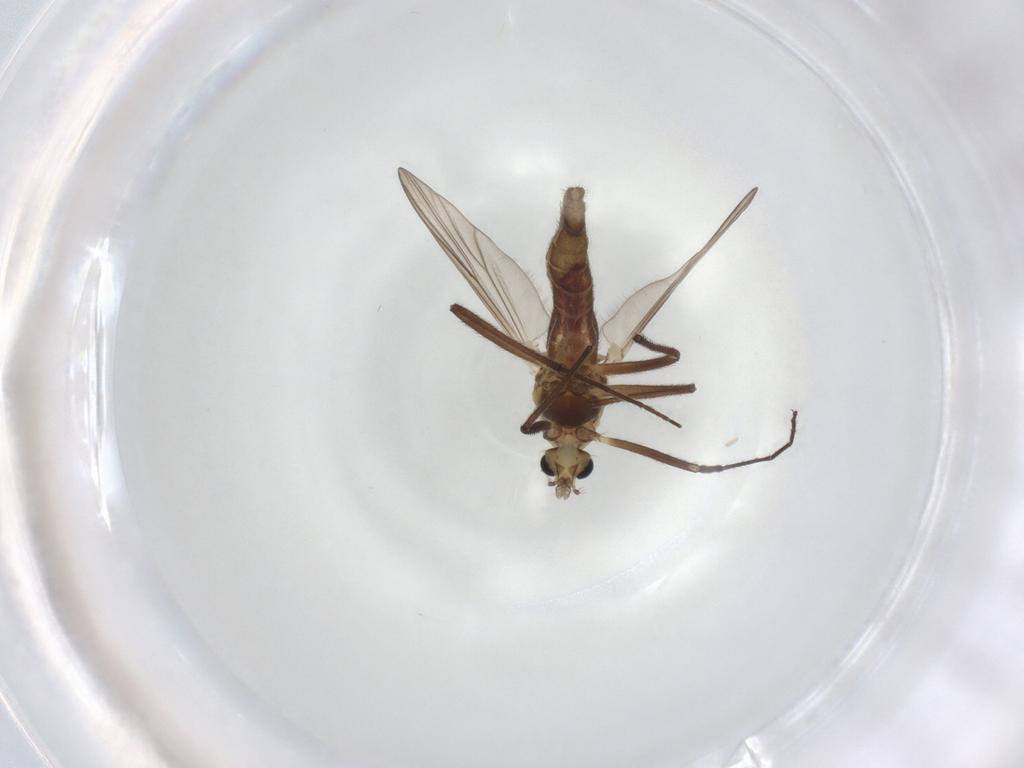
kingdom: Animalia
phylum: Arthropoda
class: Insecta
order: Diptera
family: Chironomidae
